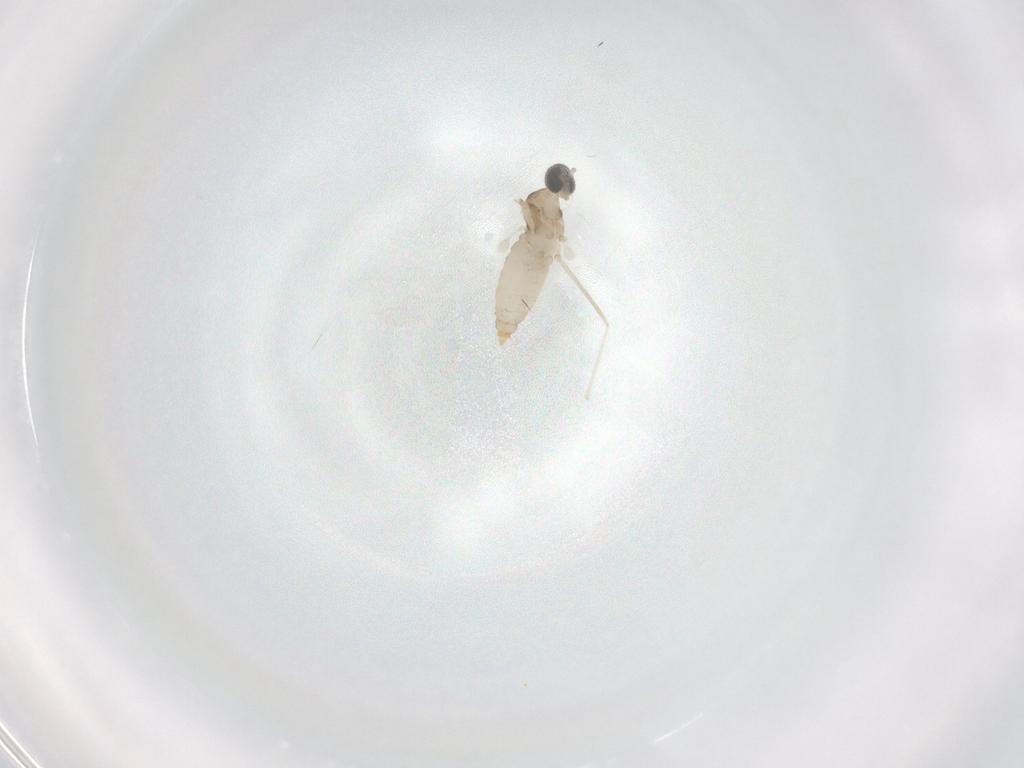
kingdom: Animalia
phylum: Arthropoda
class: Insecta
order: Diptera
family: Cecidomyiidae
